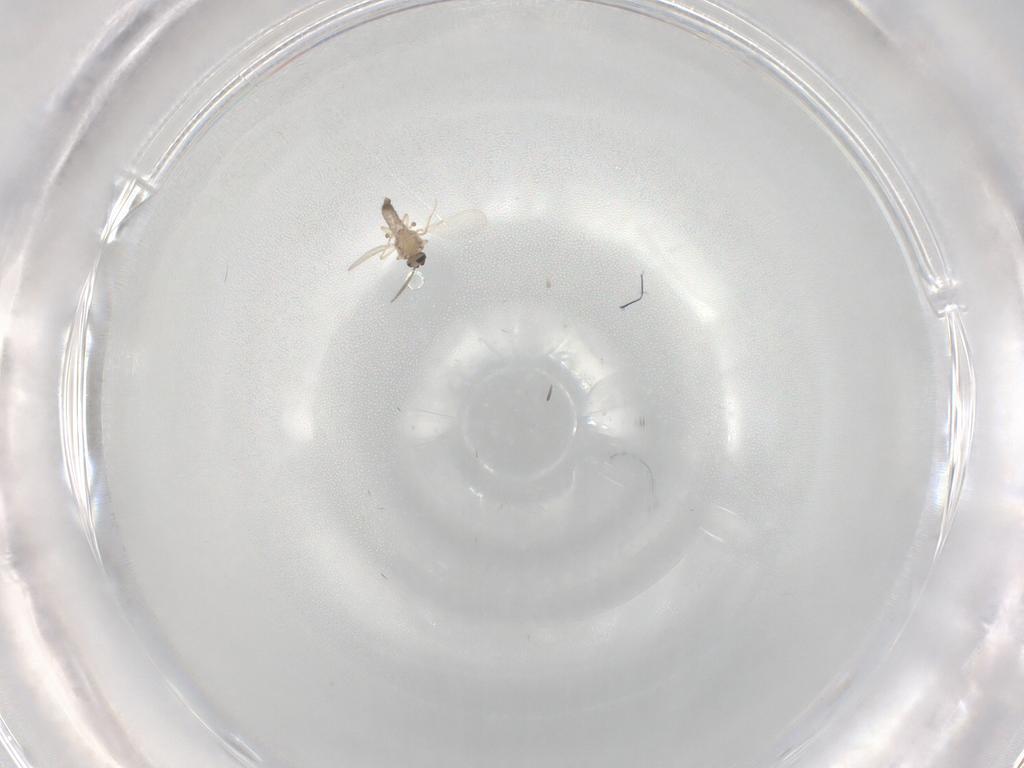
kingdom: Animalia
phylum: Arthropoda
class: Insecta
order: Diptera
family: Ceratopogonidae
